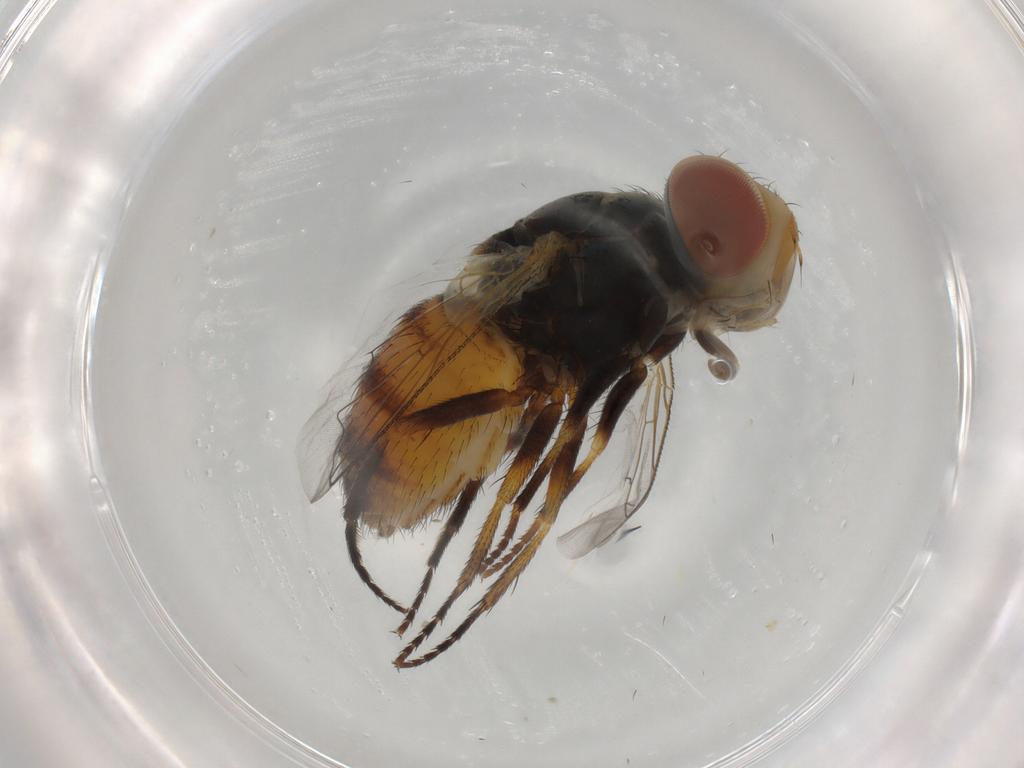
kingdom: Animalia
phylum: Arthropoda
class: Insecta
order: Diptera
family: Sarcophagidae
